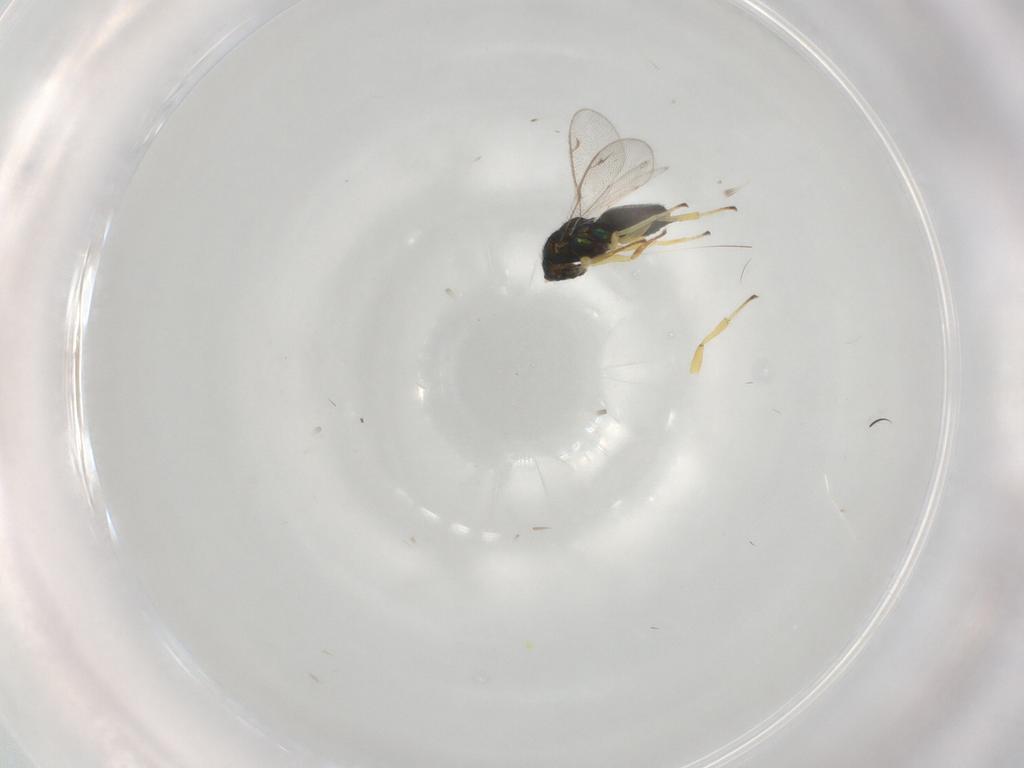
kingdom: Animalia
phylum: Arthropoda
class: Insecta
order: Hymenoptera
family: Eupelmidae
